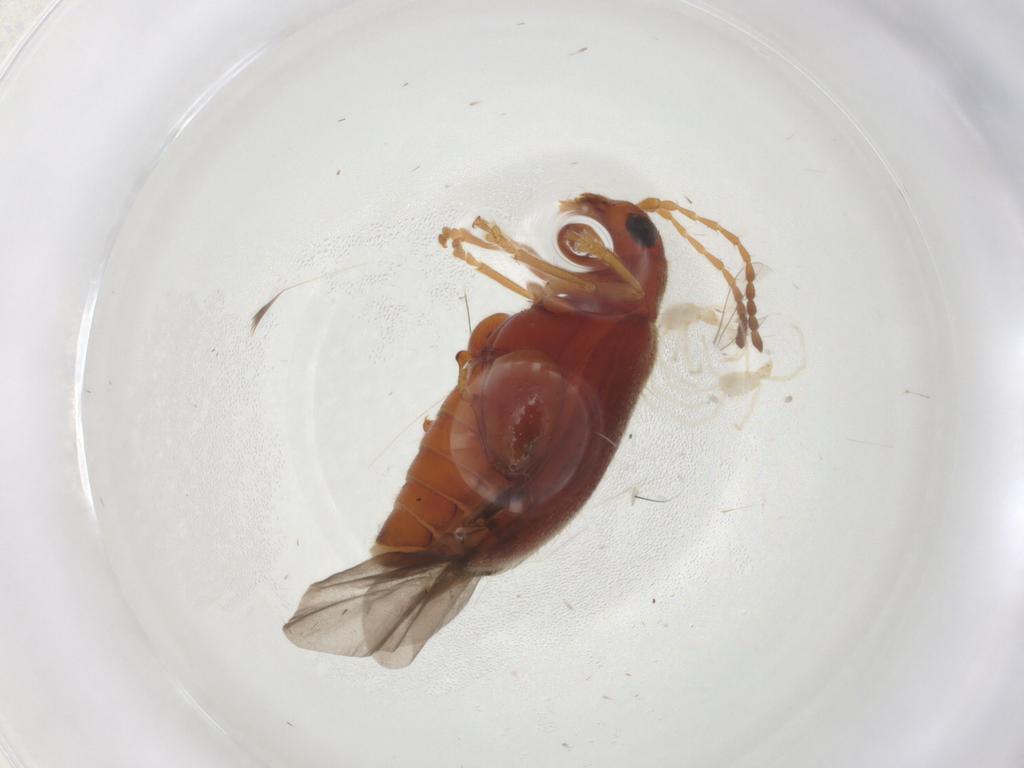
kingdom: Animalia
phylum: Arthropoda
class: Insecta
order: Coleoptera
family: Chrysomelidae
